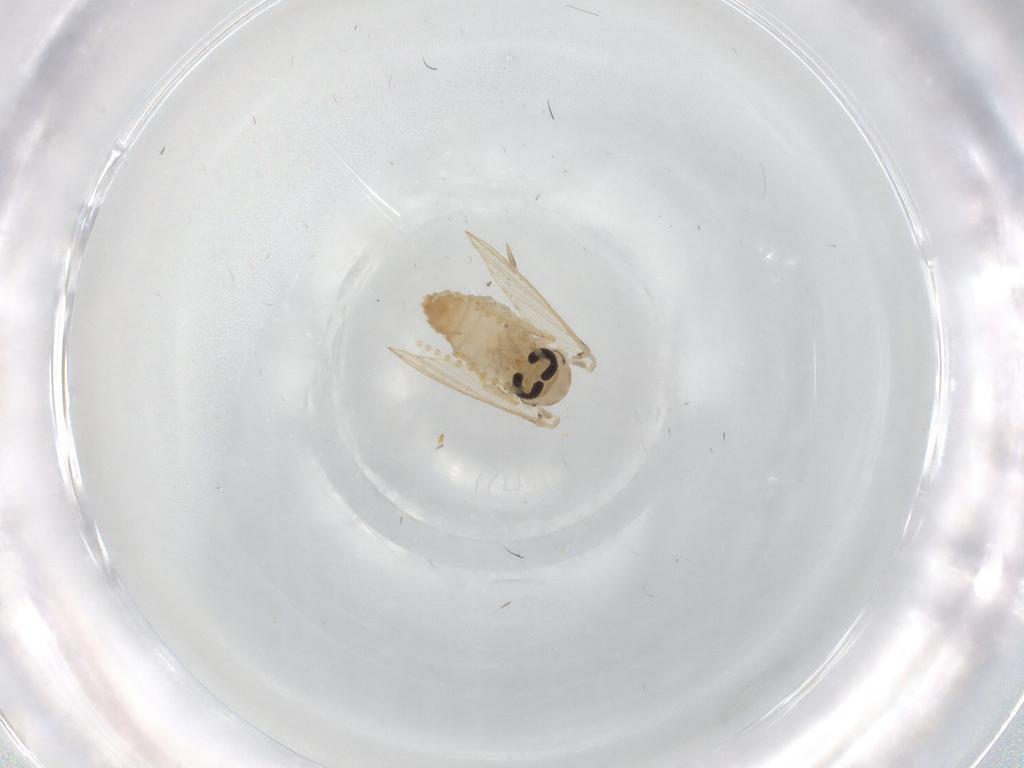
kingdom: Animalia
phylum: Arthropoda
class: Insecta
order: Diptera
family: Psychodidae
